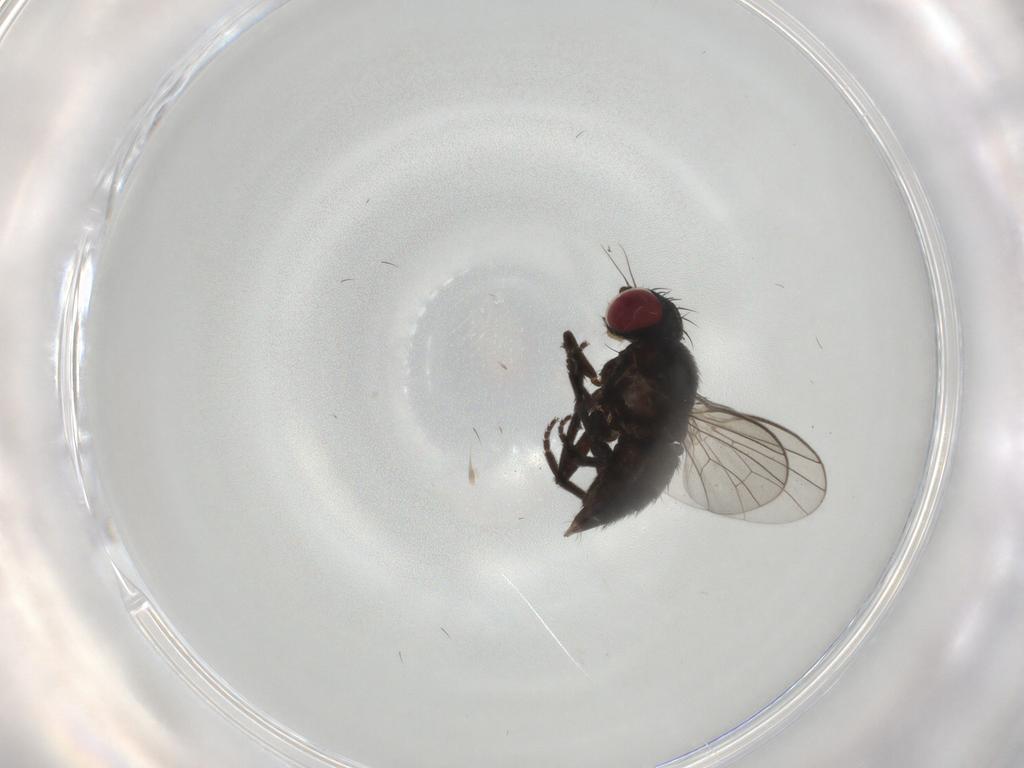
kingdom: Animalia
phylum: Arthropoda
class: Insecta
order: Diptera
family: Agromyzidae
